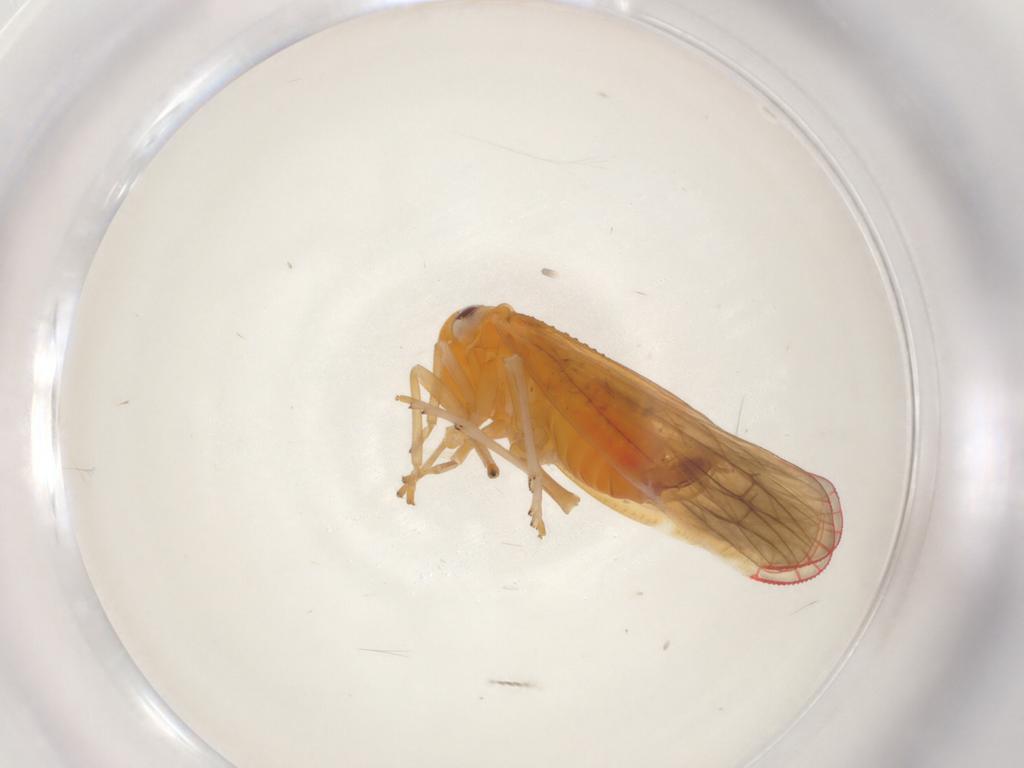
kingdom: Animalia
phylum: Arthropoda
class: Insecta
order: Hemiptera
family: Derbidae
